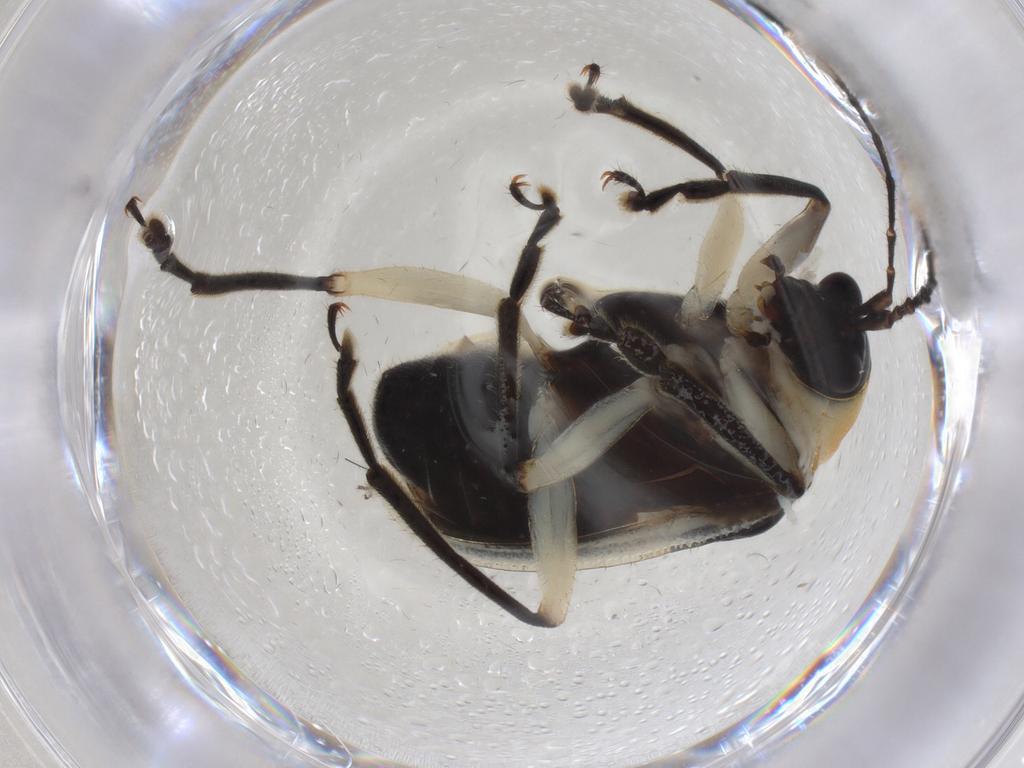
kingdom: Animalia
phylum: Arthropoda
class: Insecta
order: Coleoptera
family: Chrysomelidae
